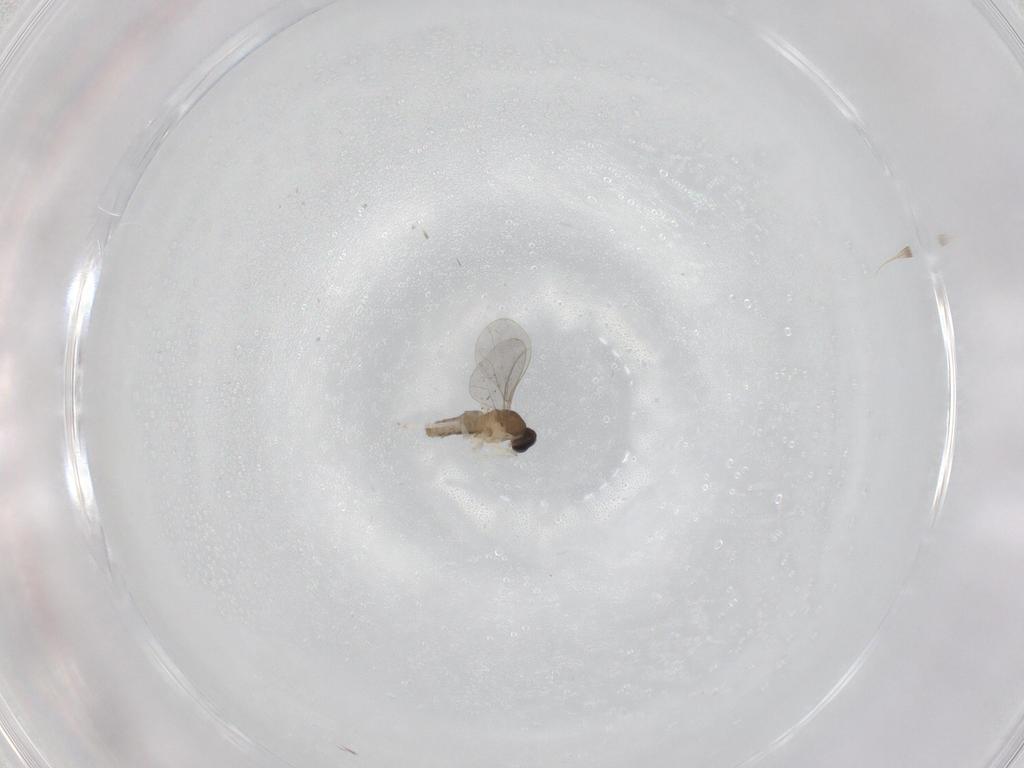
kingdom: Animalia
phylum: Arthropoda
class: Insecta
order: Diptera
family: Cecidomyiidae
